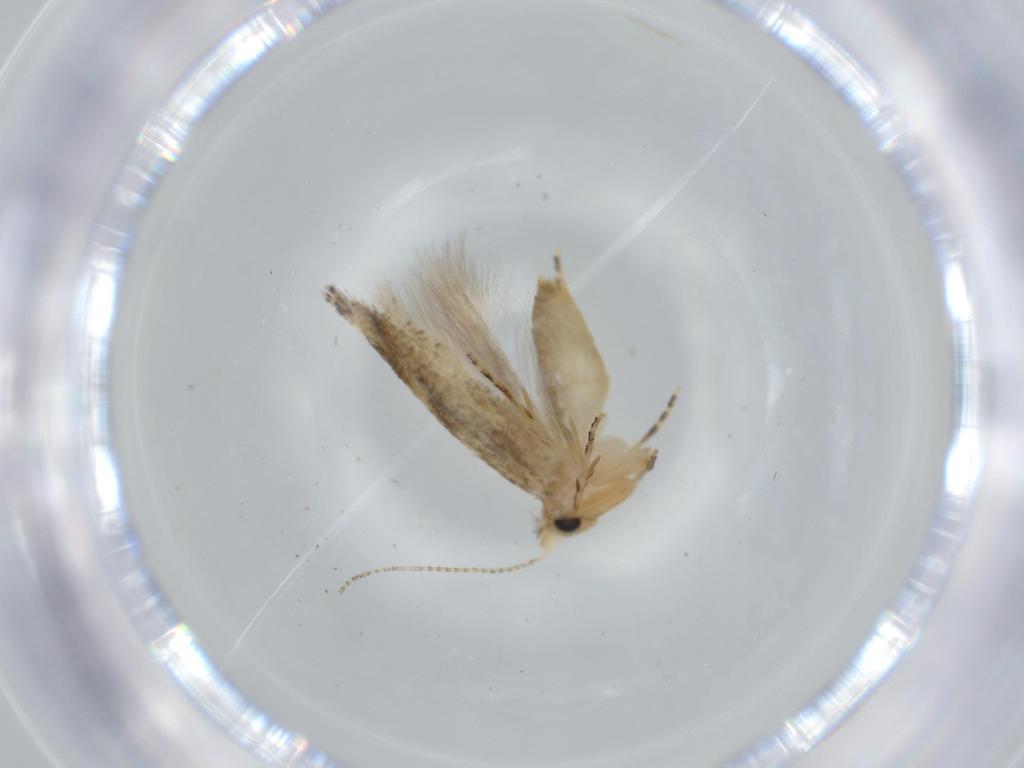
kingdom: Animalia
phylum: Arthropoda
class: Insecta
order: Lepidoptera
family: Bucculatricidae
